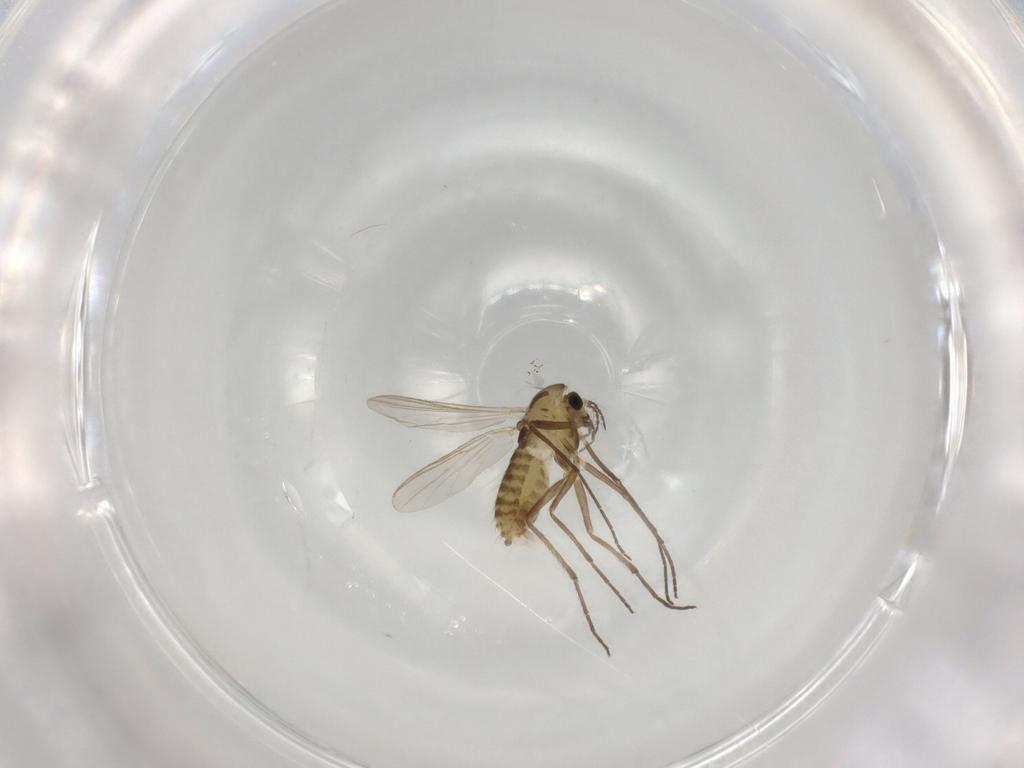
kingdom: Animalia
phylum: Arthropoda
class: Insecta
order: Diptera
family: Chironomidae
